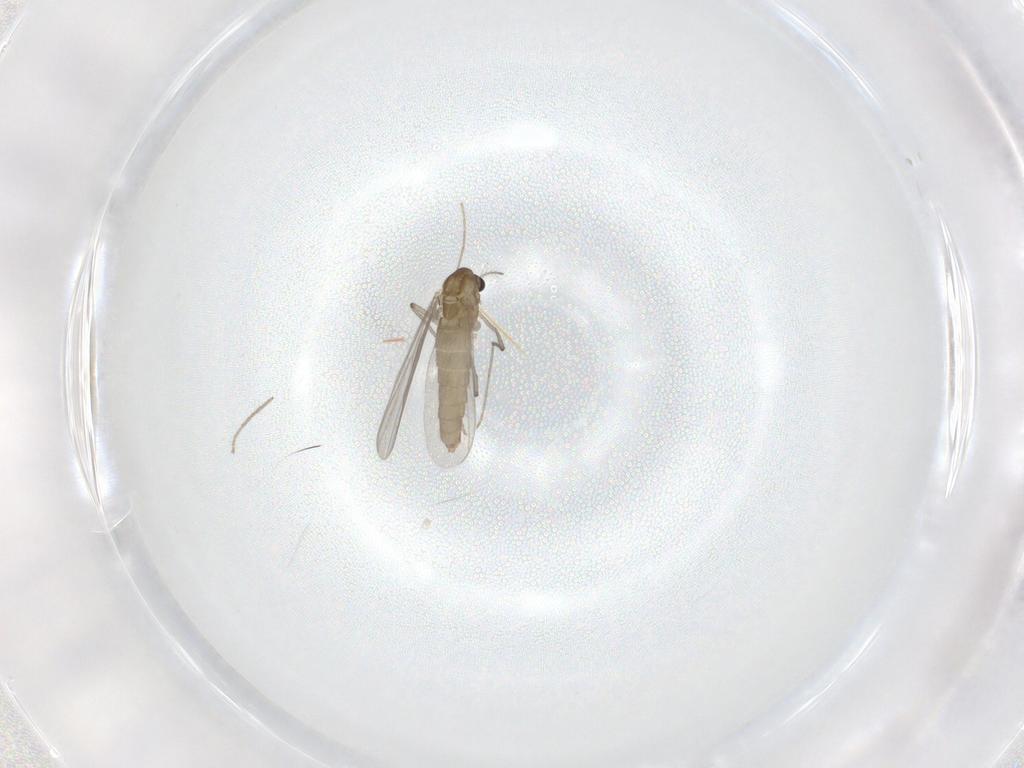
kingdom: Animalia
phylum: Arthropoda
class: Insecta
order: Diptera
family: Chironomidae
